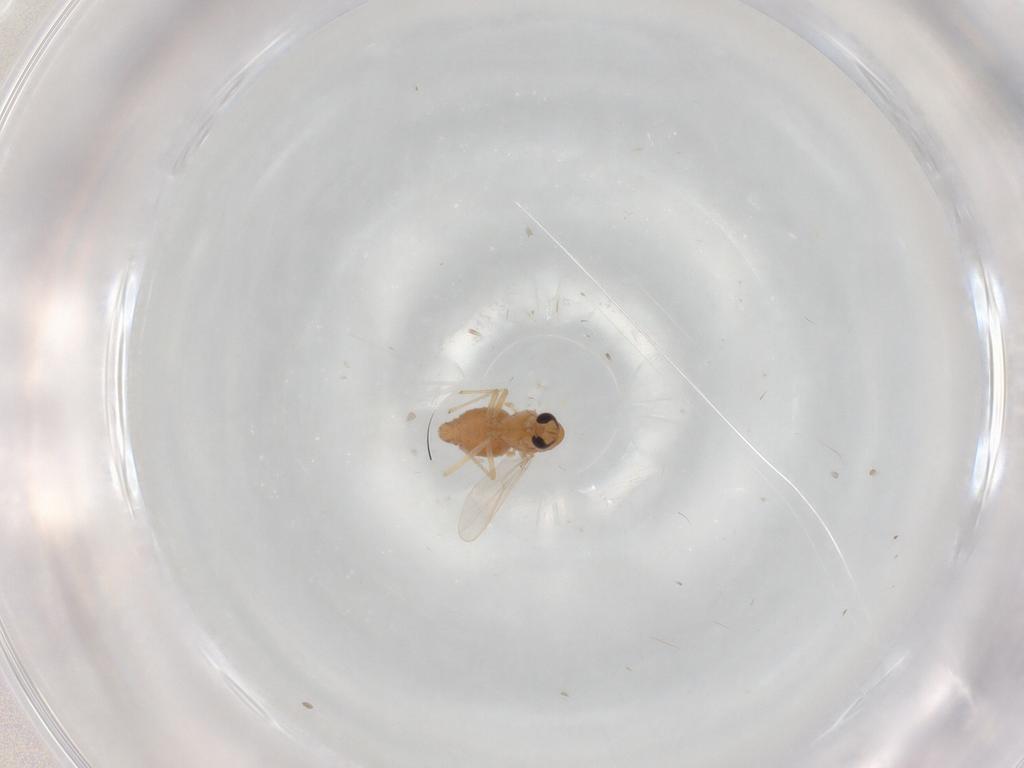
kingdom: Animalia
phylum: Arthropoda
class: Insecta
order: Diptera
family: Chironomidae
